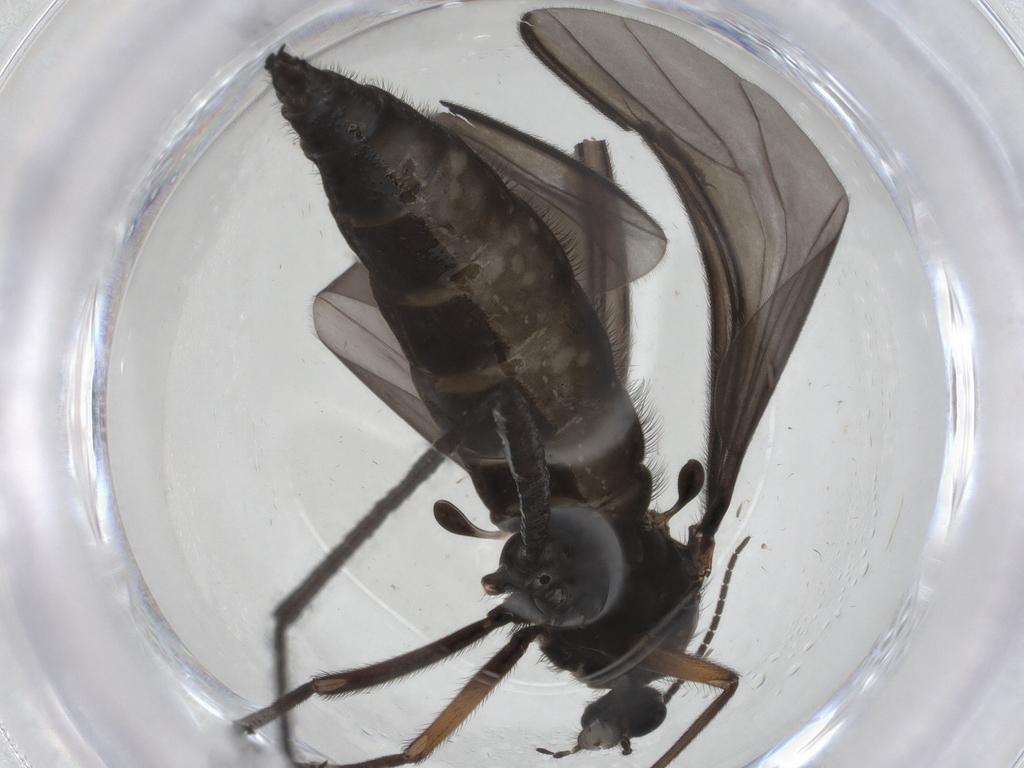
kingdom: Animalia
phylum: Arthropoda
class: Insecta
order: Diptera
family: Sciaridae
